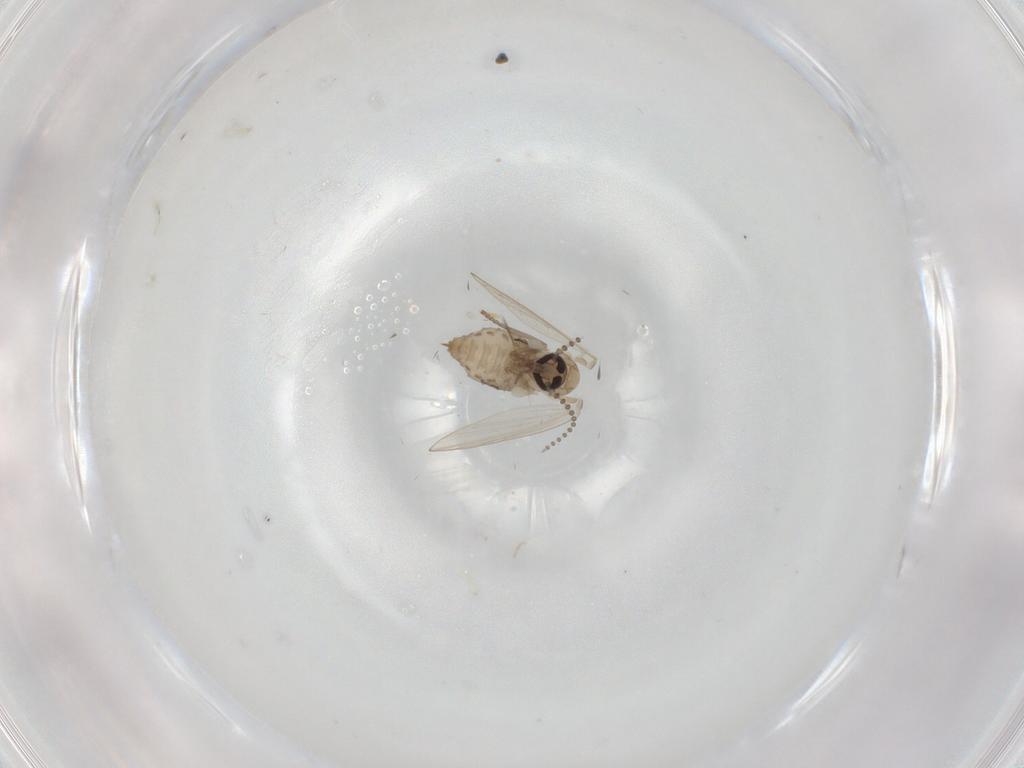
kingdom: Animalia
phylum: Arthropoda
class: Insecta
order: Diptera
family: Psychodidae
